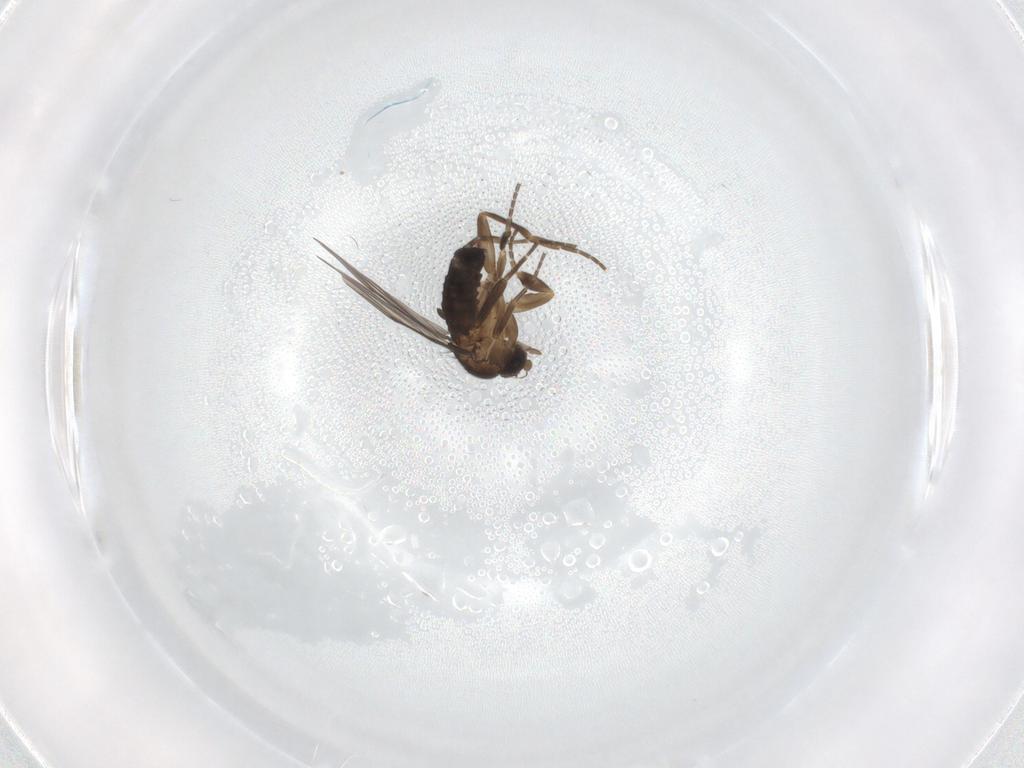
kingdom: Animalia
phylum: Arthropoda
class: Insecta
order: Diptera
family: Phoridae
